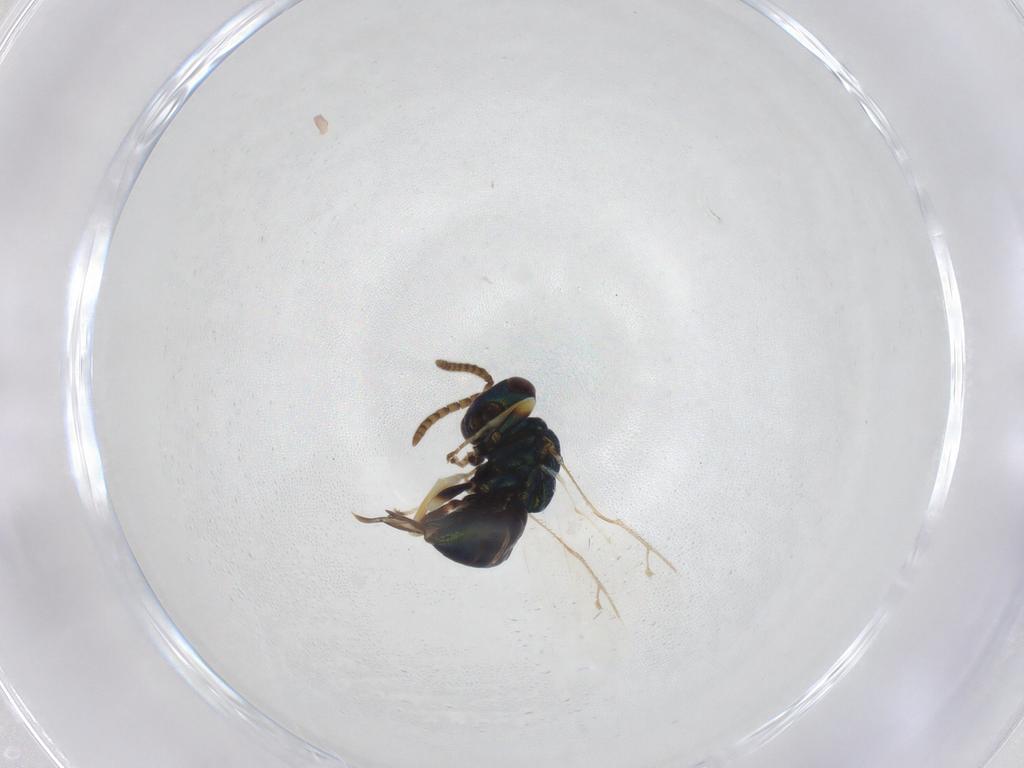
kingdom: Animalia
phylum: Arthropoda
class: Insecta
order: Hymenoptera
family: Pteromalidae
